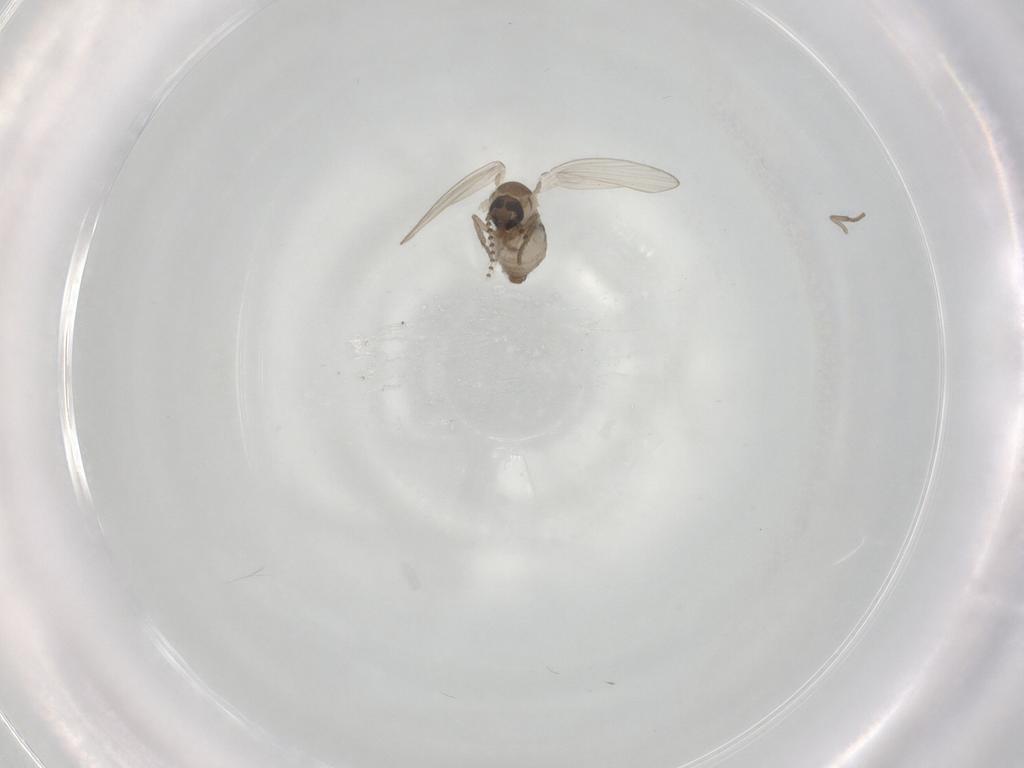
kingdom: Animalia
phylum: Arthropoda
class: Insecta
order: Diptera
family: Psychodidae
